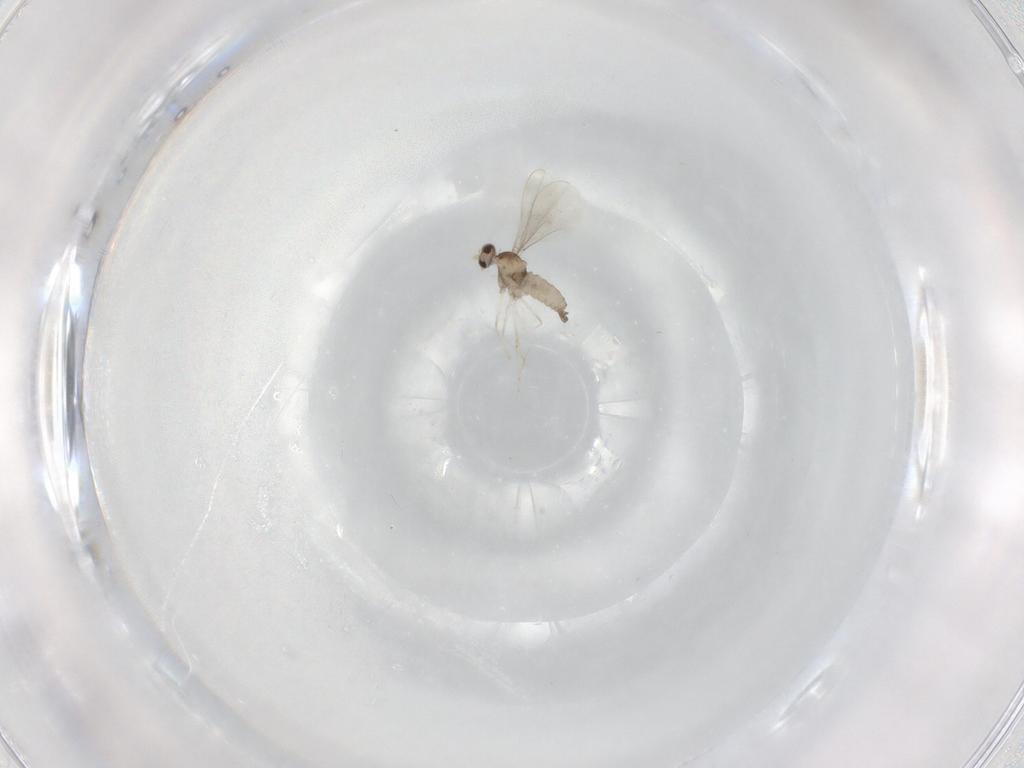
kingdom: Animalia
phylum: Arthropoda
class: Insecta
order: Diptera
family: Cecidomyiidae
